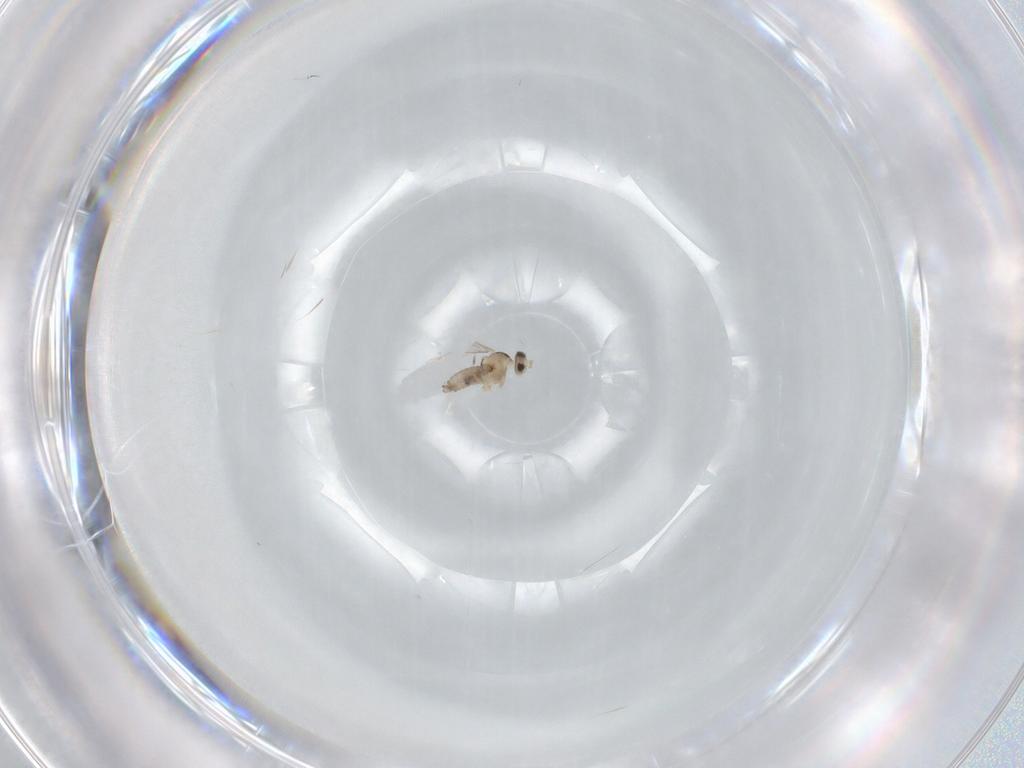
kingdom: Animalia
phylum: Arthropoda
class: Insecta
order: Diptera
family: Cecidomyiidae
